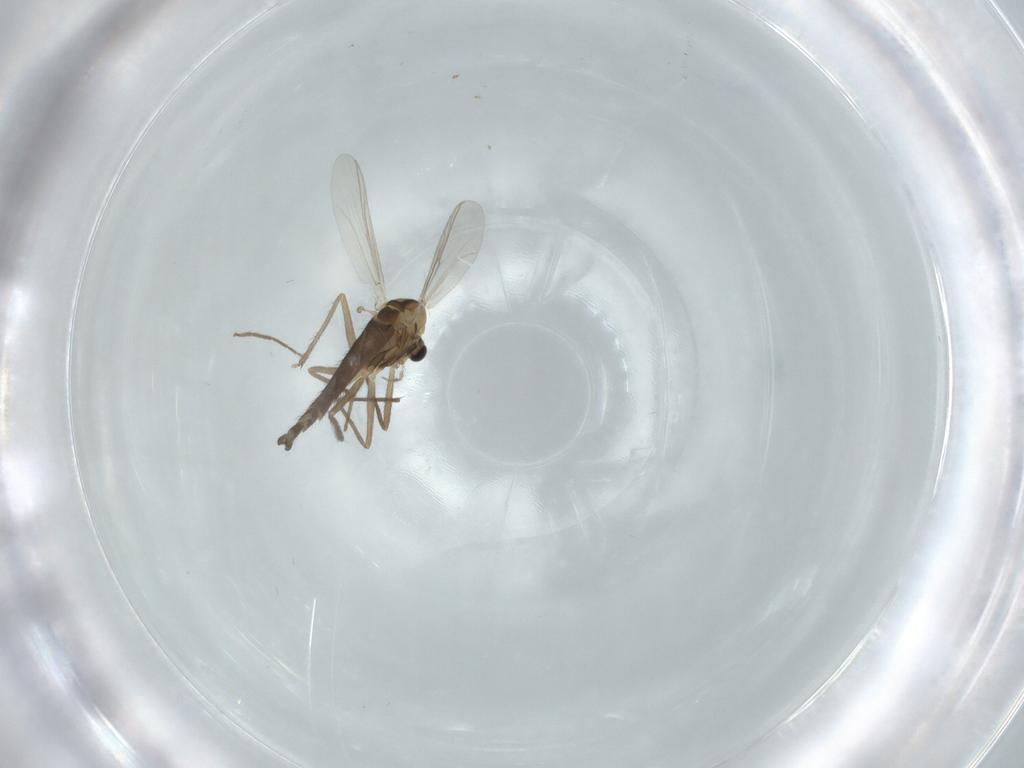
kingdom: Animalia
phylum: Arthropoda
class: Insecta
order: Diptera
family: Chironomidae
